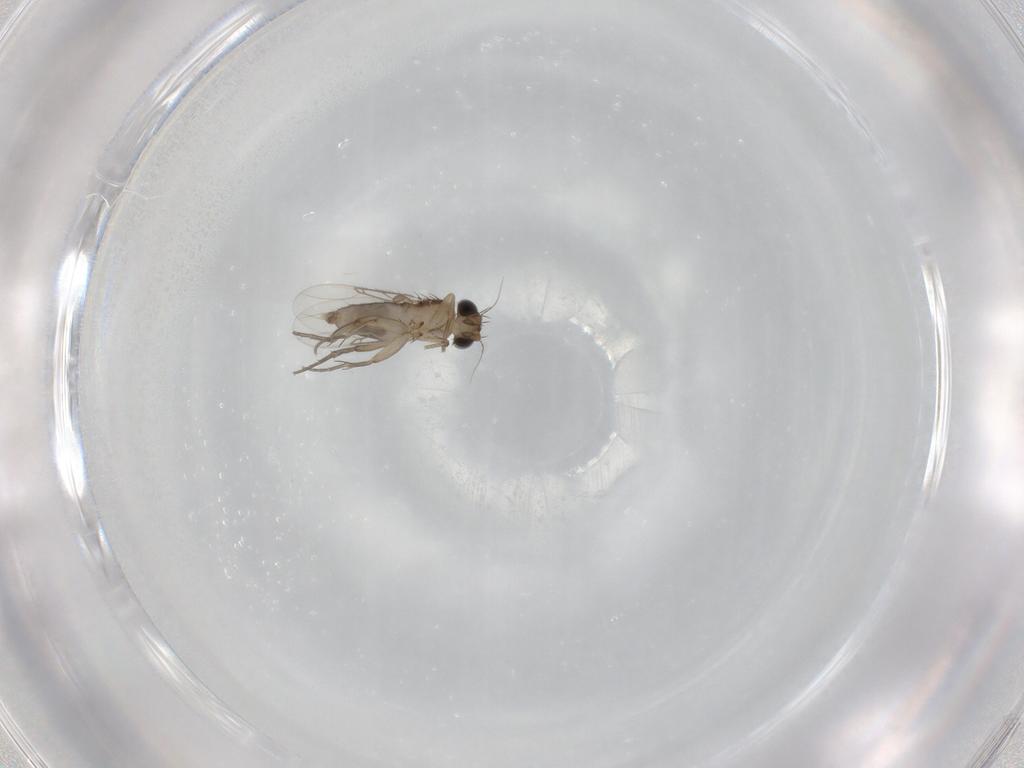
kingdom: Animalia
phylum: Arthropoda
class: Insecta
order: Diptera
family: Phoridae
